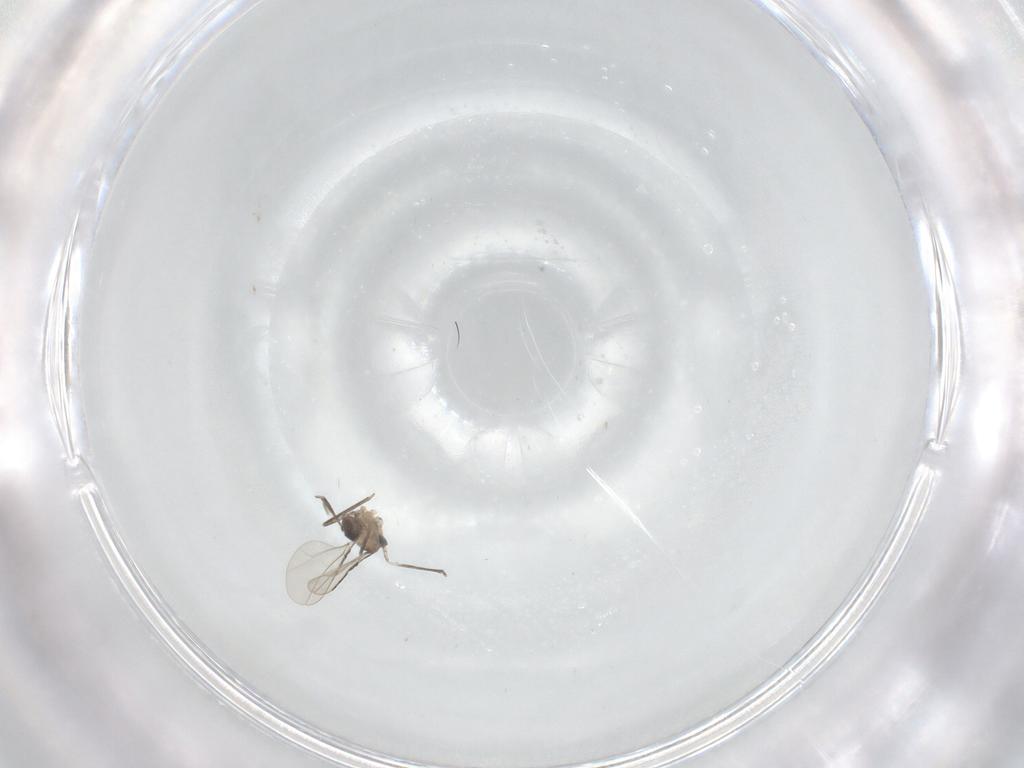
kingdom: Animalia
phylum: Arthropoda
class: Insecta
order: Diptera
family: Cecidomyiidae
